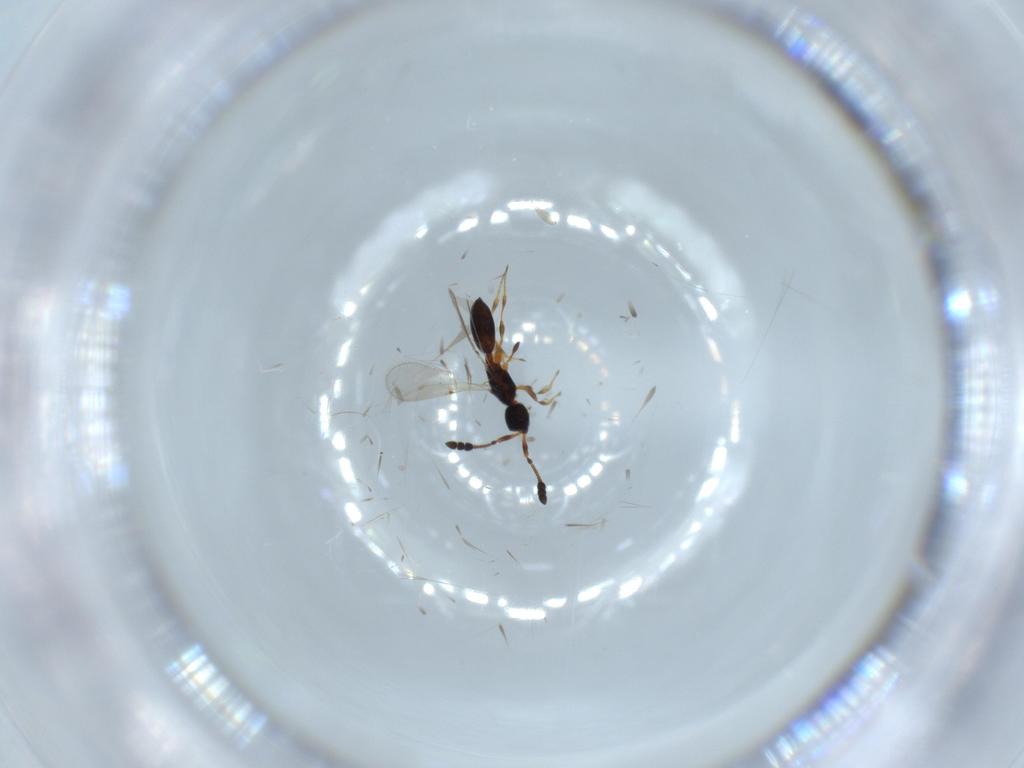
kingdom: Animalia
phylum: Arthropoda
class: Insecta
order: Hymenoptera
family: Diapriidae
